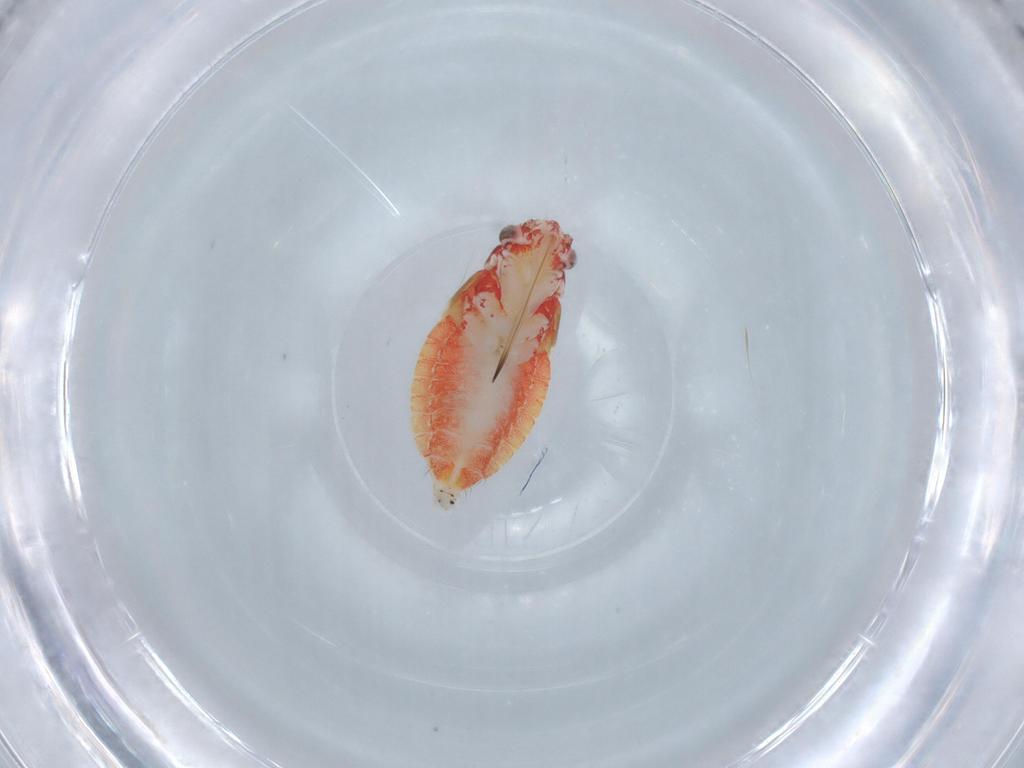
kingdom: Animalia
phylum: Arthropoda
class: Insecta
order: Hemiptera
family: Miridae
